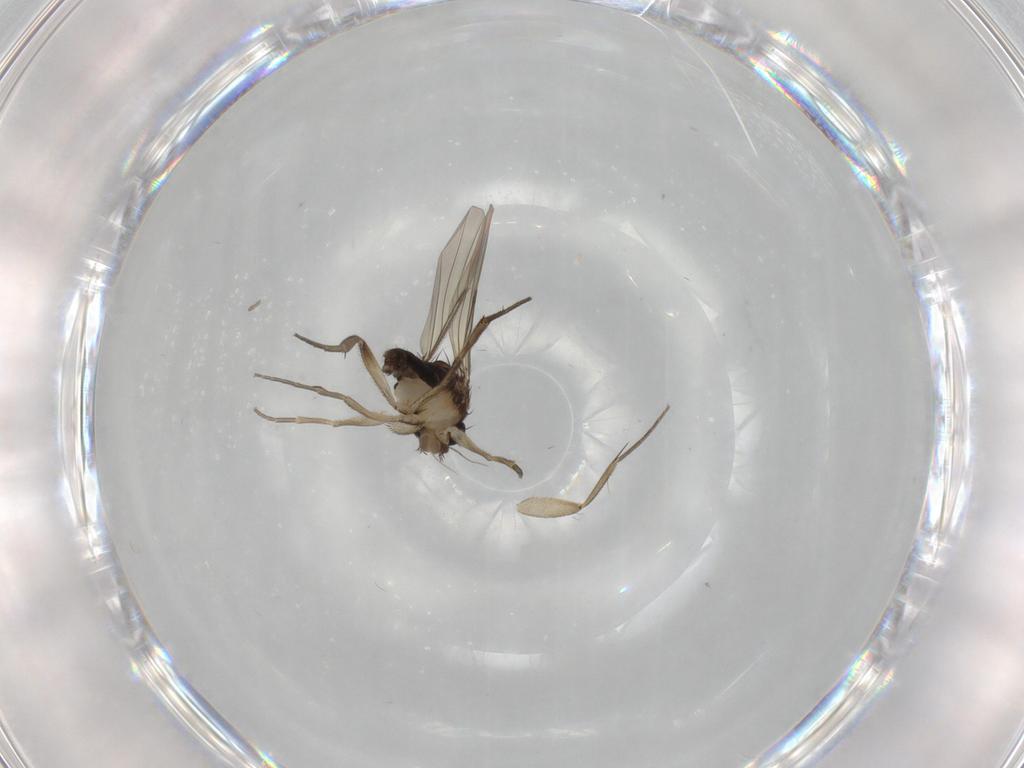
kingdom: Animalia
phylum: Arthropoda
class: Insecta
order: Diptera
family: Phoridae
